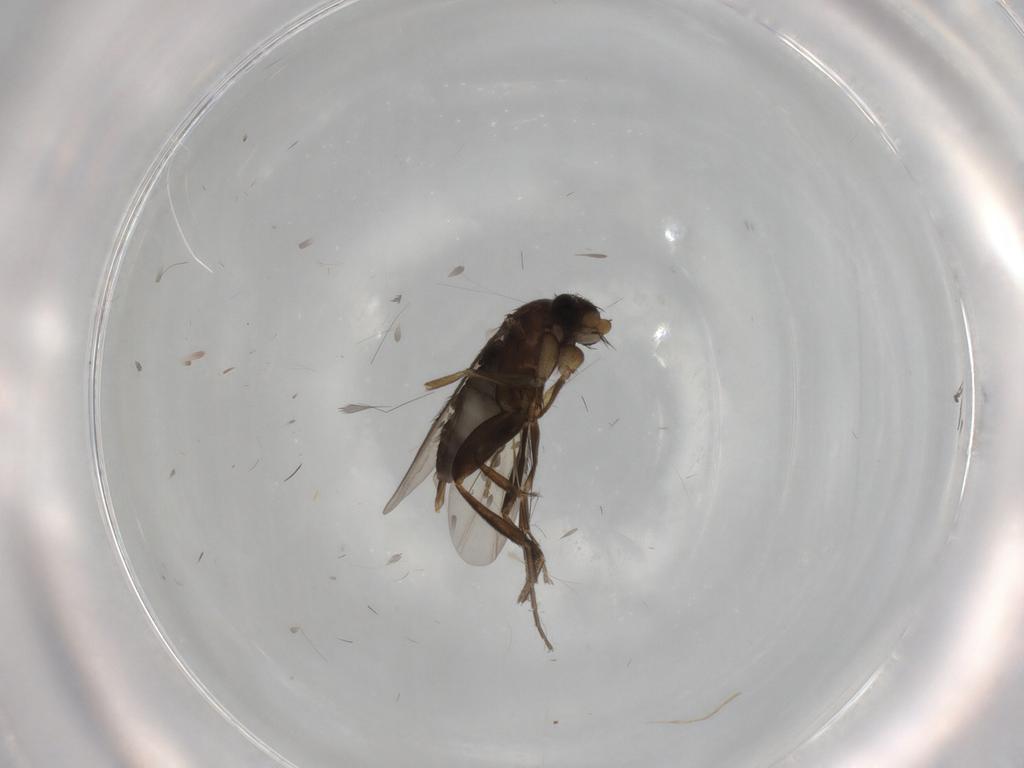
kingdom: Animalia
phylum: Arthropoda
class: Insecta
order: Diptera
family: Phoridae
